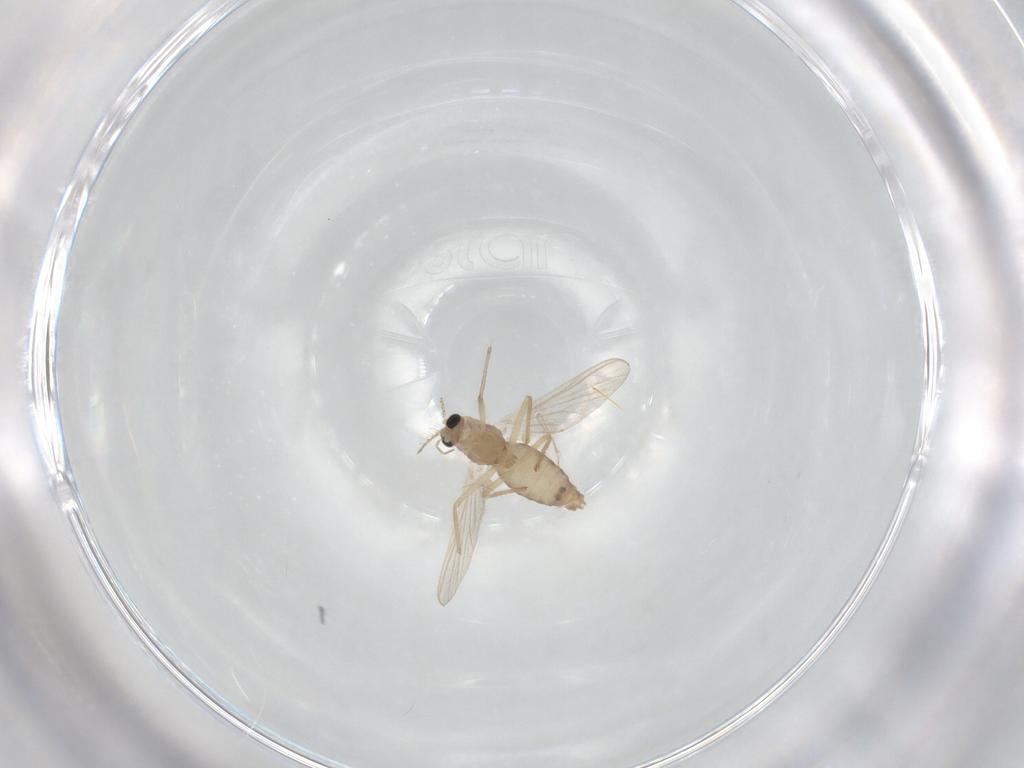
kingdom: Animalia
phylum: Arthropoda
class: Insecta
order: Diptera
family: Chironomidae
